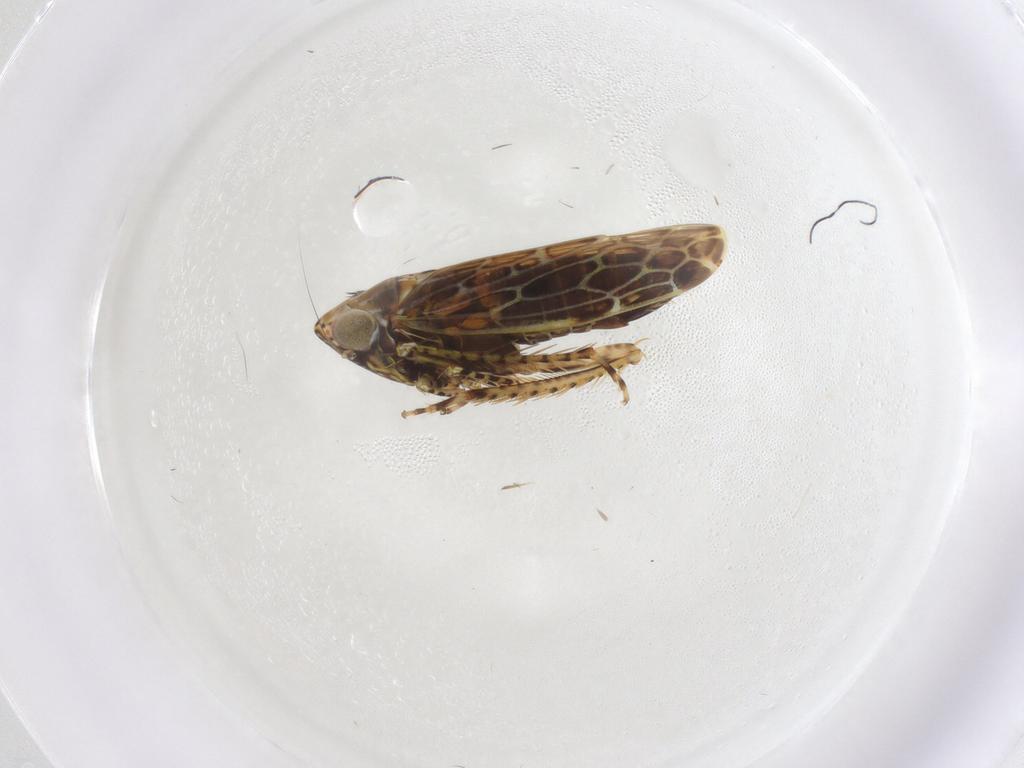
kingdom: Animalia
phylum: Arthropoda
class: Insecta
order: Hemiptera
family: Cicadellidae
